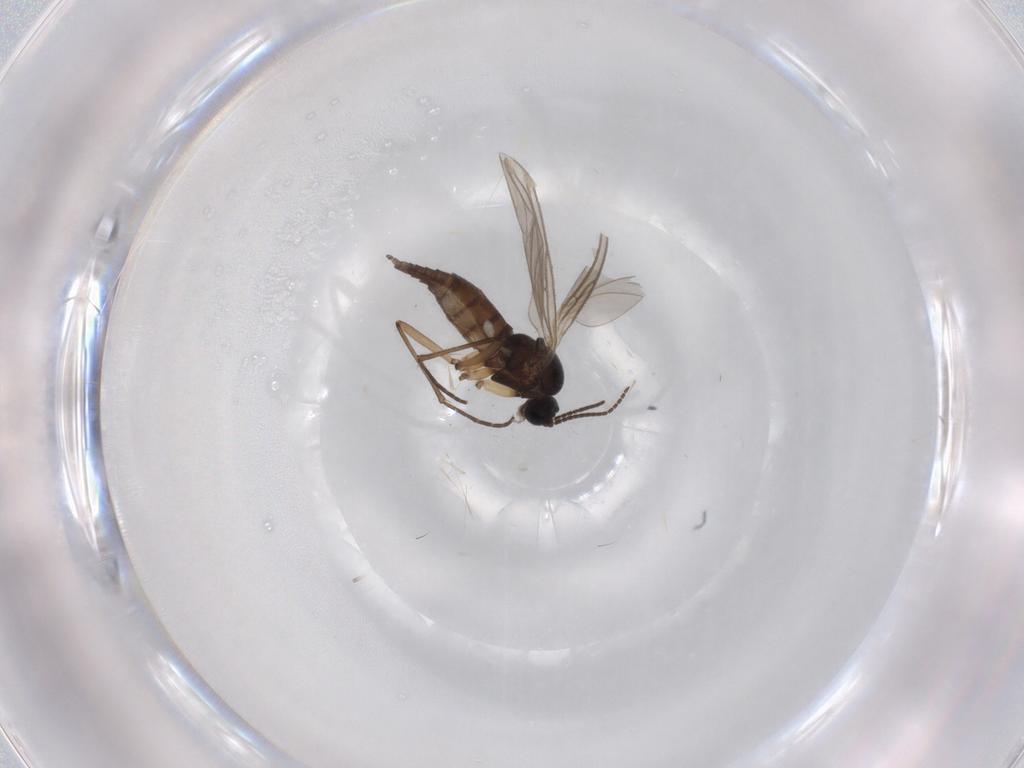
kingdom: Animalia
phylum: Arthropoda
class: Insecta
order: Diptera
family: Sciaridae
